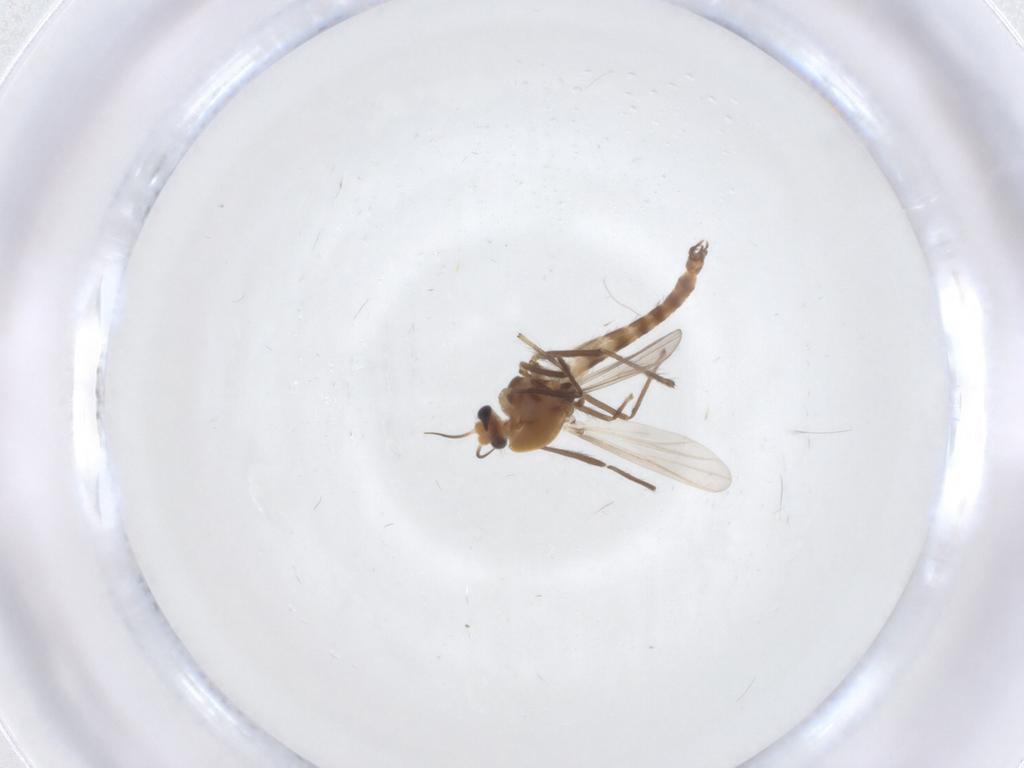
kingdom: Animalia
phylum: Arthropoda
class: Insecta
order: Diptera
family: Chironomidae
